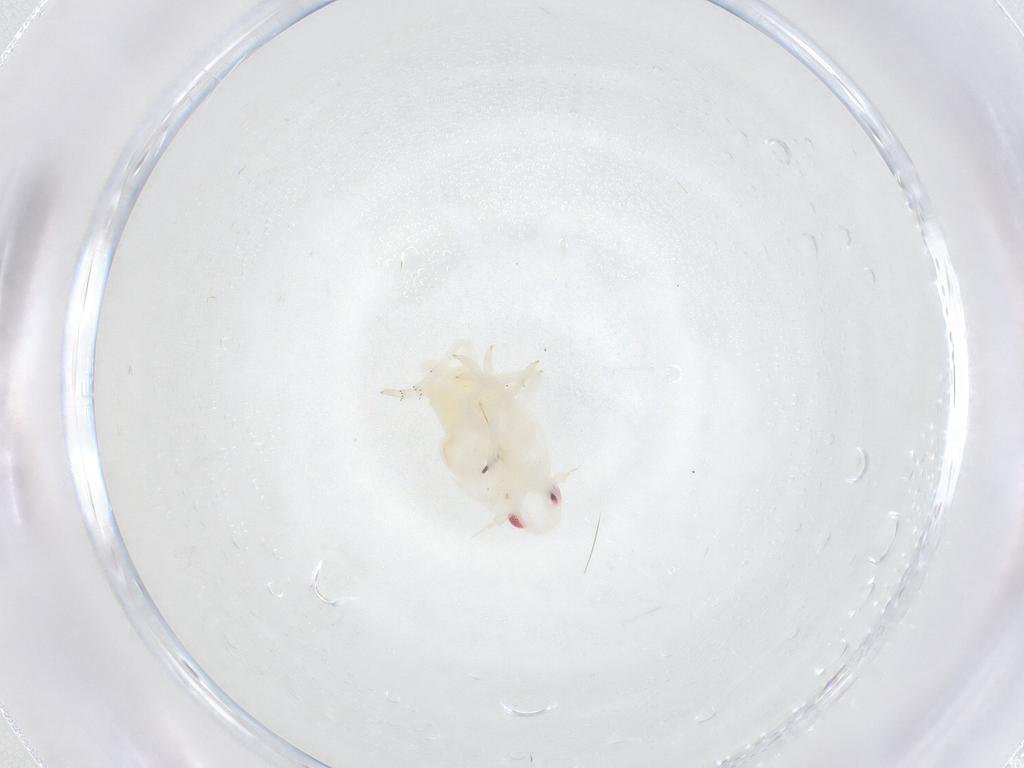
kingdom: Animalia
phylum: Arthropoda
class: Insecta
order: Hemiptera
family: Flatidae
